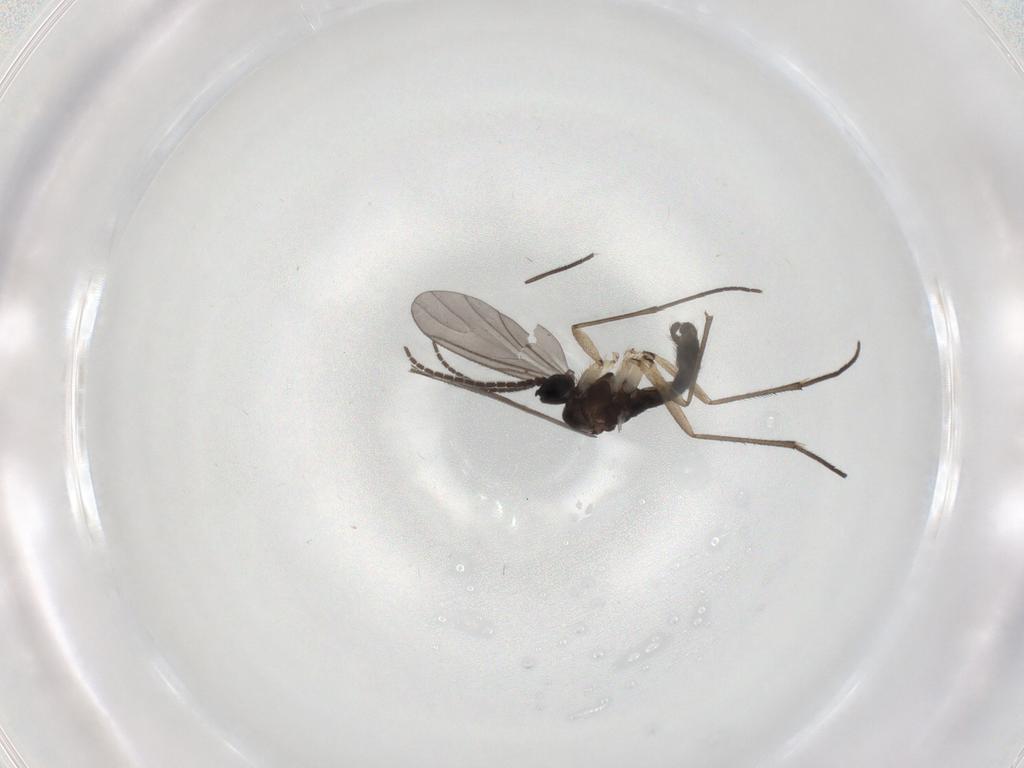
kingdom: Animalia
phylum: Arthropoda
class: Insecta
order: Diptera
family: Sciaridae
